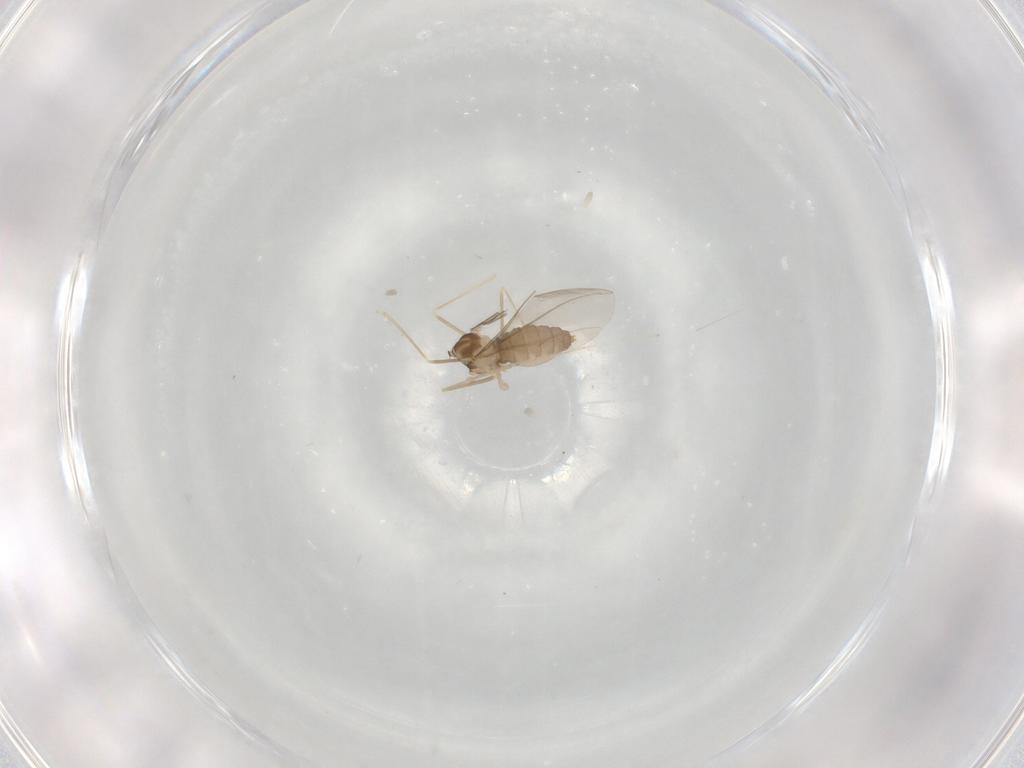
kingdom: Animalia
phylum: Arthropoda
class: Insecta
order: Diptera
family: Cecidomyiidae
